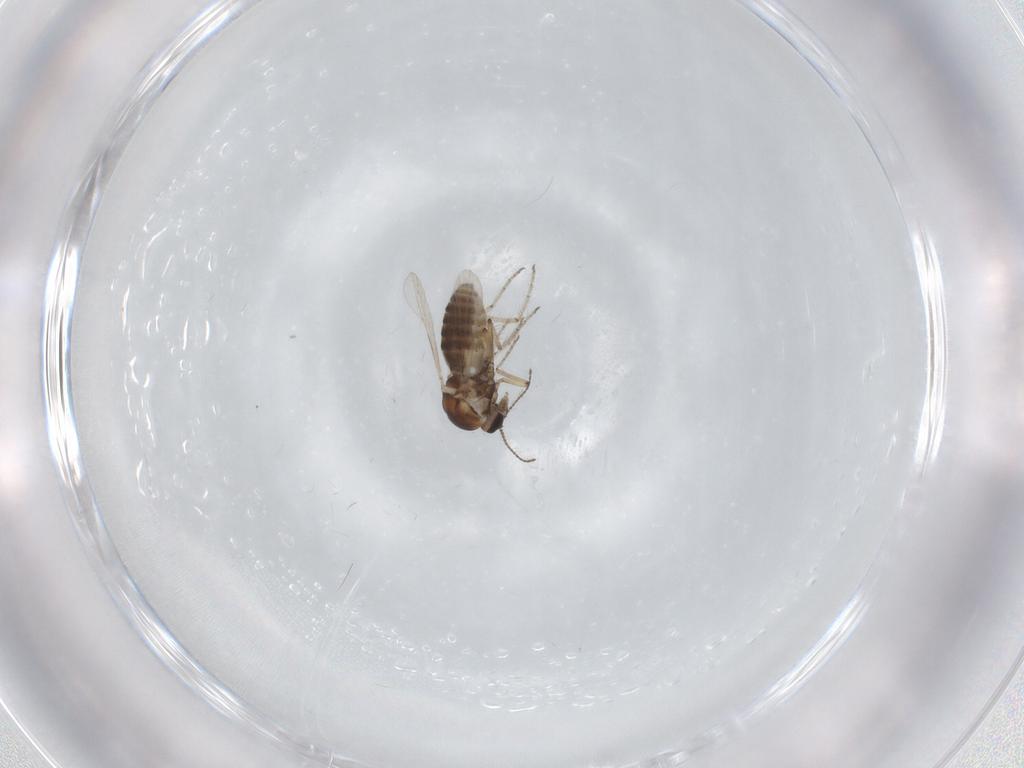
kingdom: Animalia
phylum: Arthropoda
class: Insecta
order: Diptera
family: Ceratopogonidae
